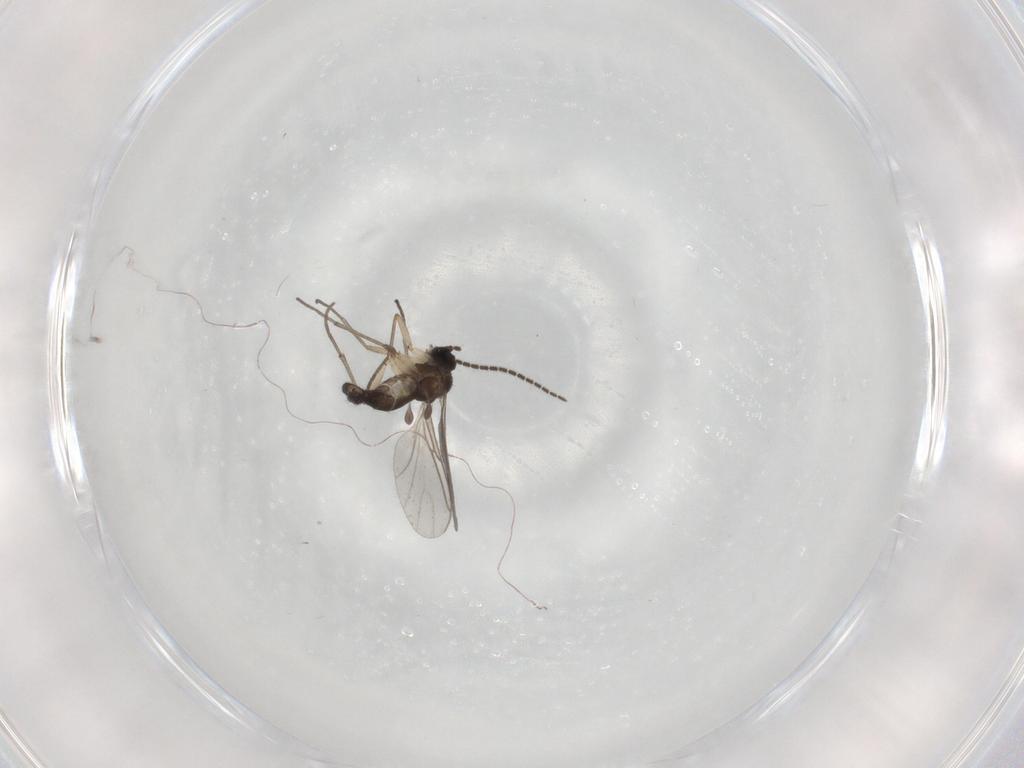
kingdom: Animalia
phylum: Arthropoda
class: Insecta
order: Diptera
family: Sciaridae
